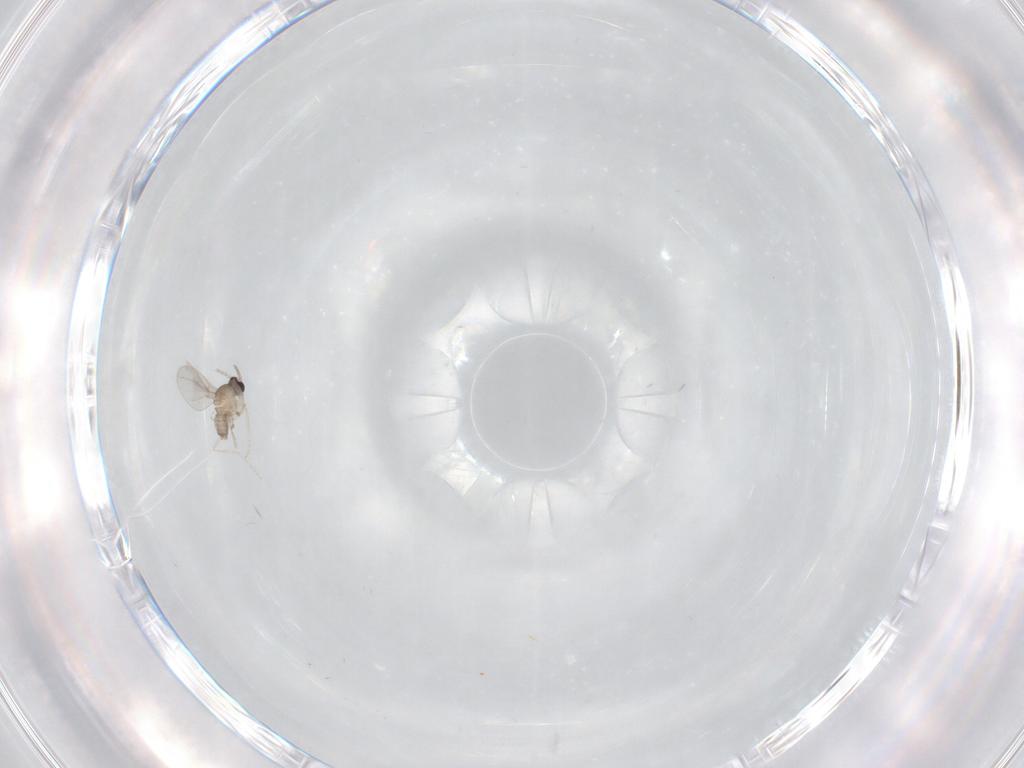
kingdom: Animalia
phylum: Arthropoda
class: Insecta
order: Diptera
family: Cecidomyiidae
